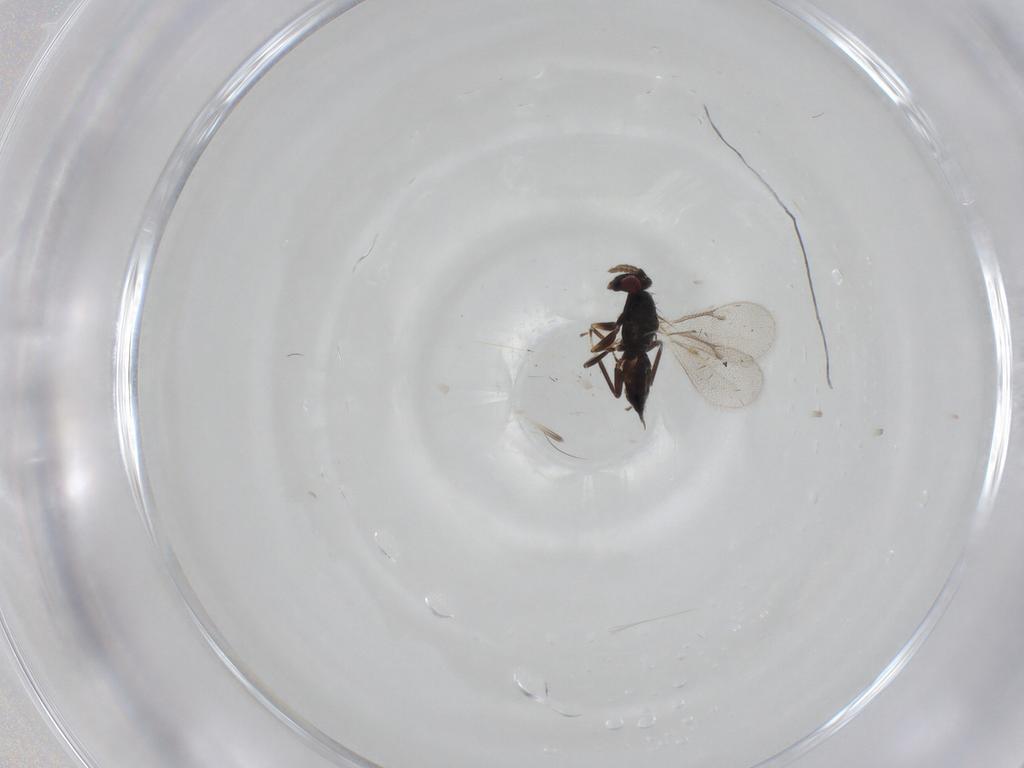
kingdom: Animalia
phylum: Arthropoda
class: Insecta
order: Hymenoptera
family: Eulophidae
